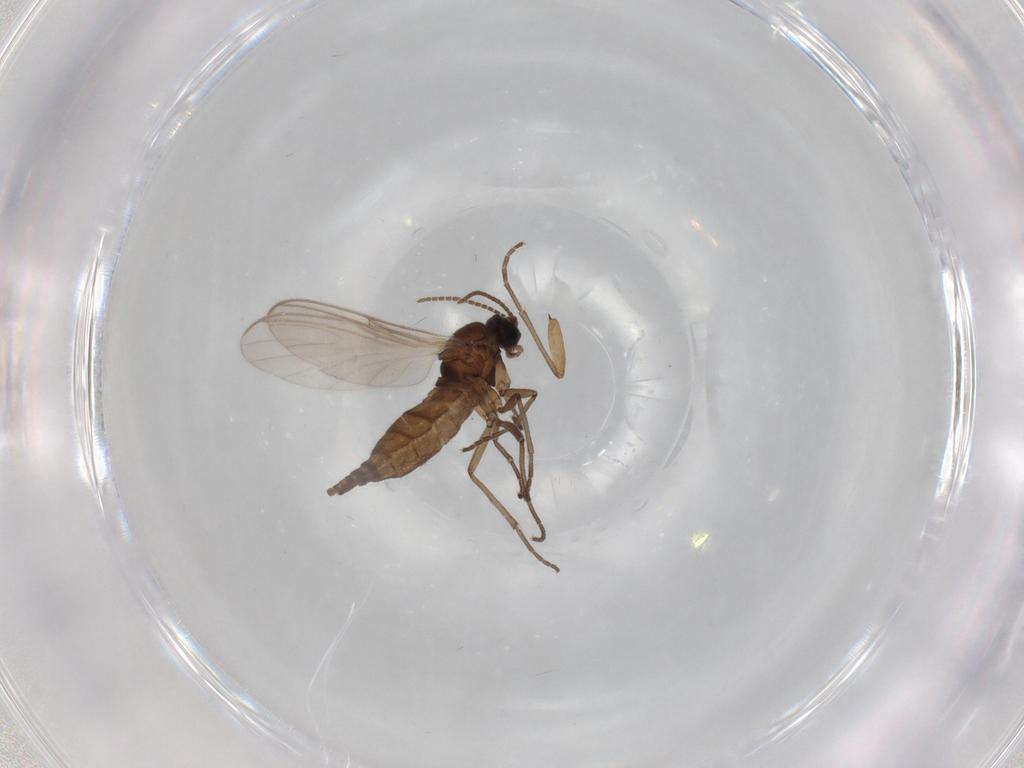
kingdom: Animalia
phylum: Arthropoda
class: Insecta
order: Diptera
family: Sciaridae
